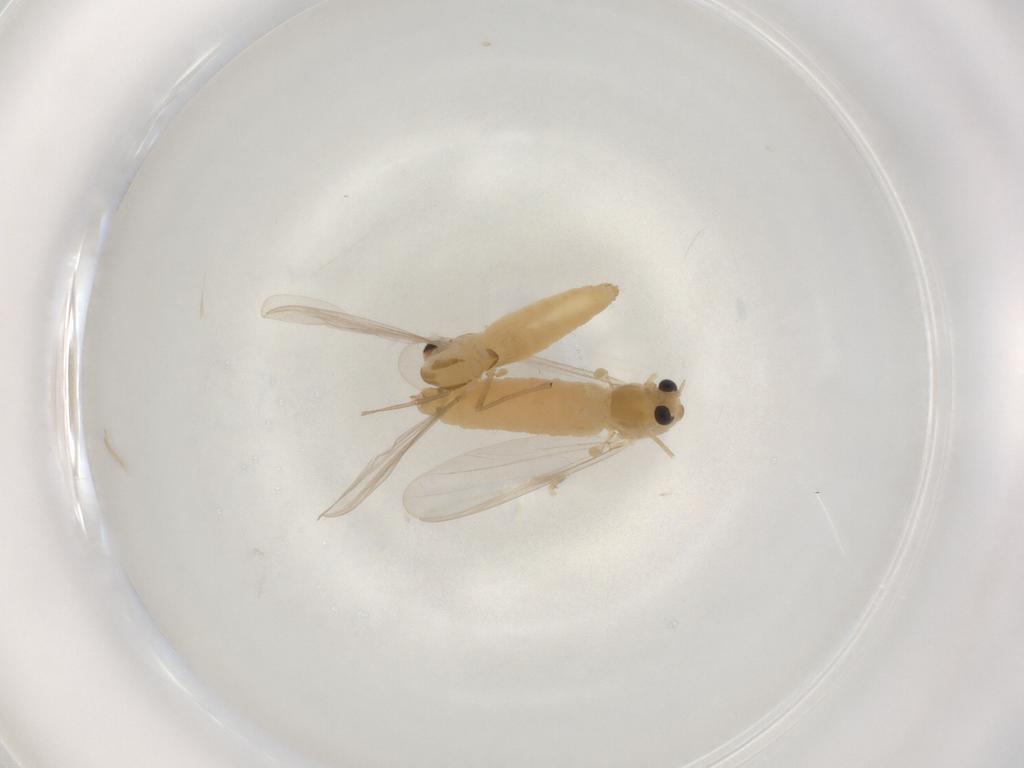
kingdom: Animalia
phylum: Arthropoda
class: Insecta
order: Diptera
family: Chironomidae
